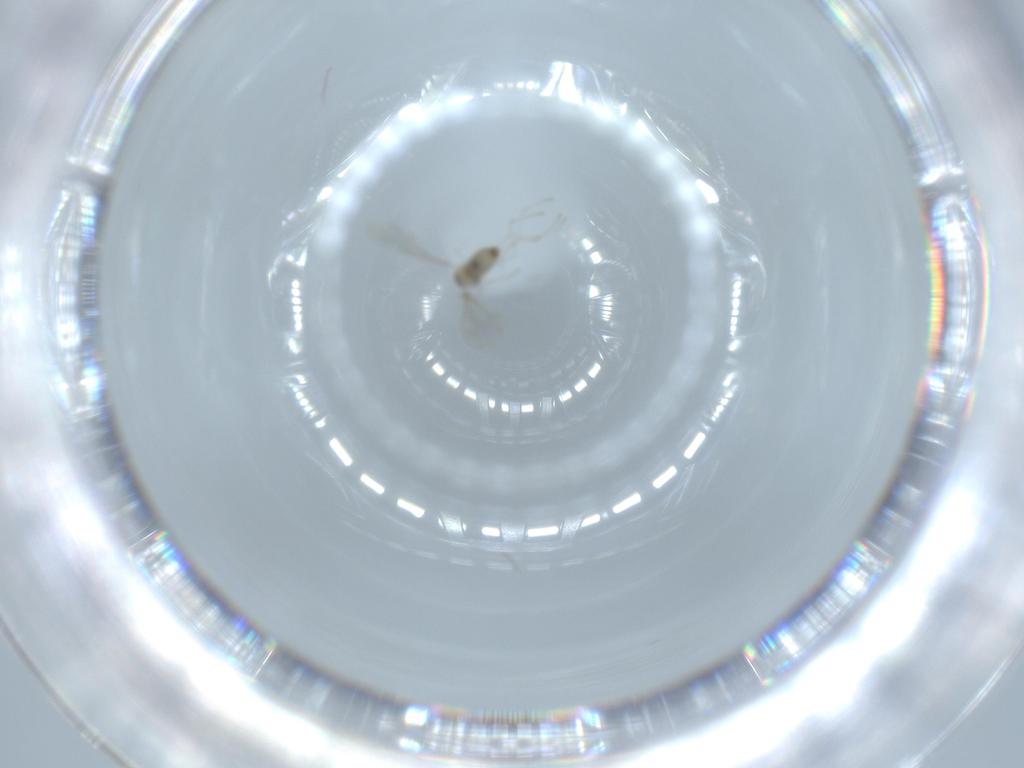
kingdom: Animalia
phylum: Arthropoda
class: Insecta
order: Diptera
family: Cecidomyiidae
